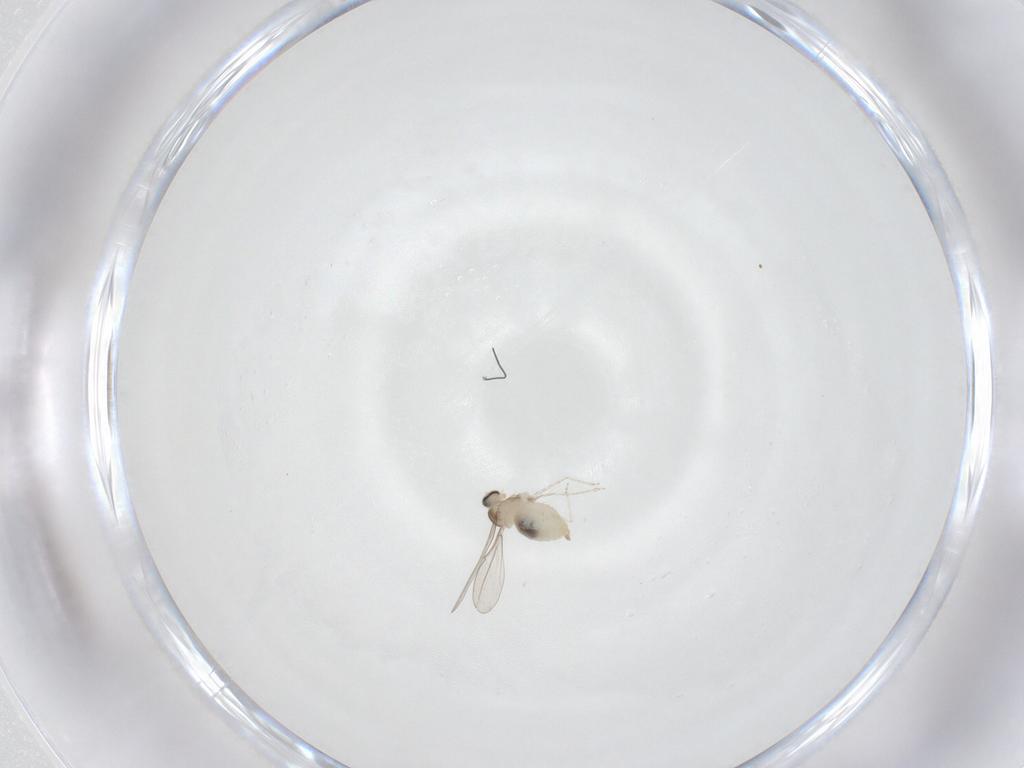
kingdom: Animalia
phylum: Arthropoda
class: Insecta
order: Diptera
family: Cecidomyiidae
